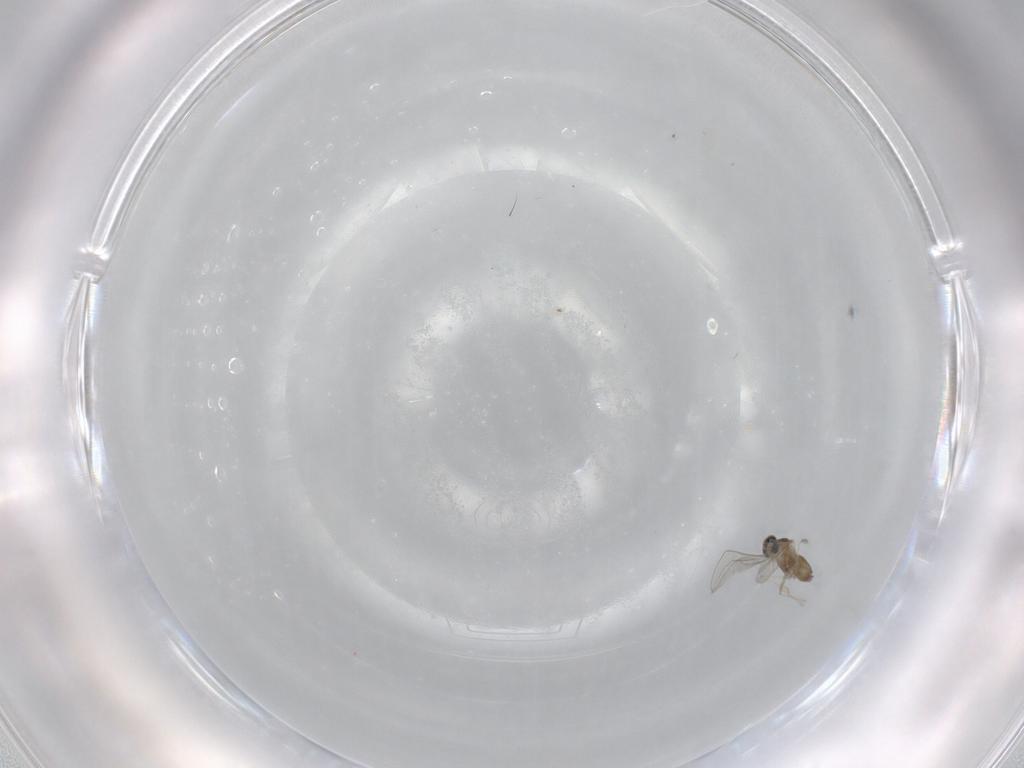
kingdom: Animalia
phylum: Arthropoda
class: Insecta
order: Diptera
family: Cecidomyiidae
